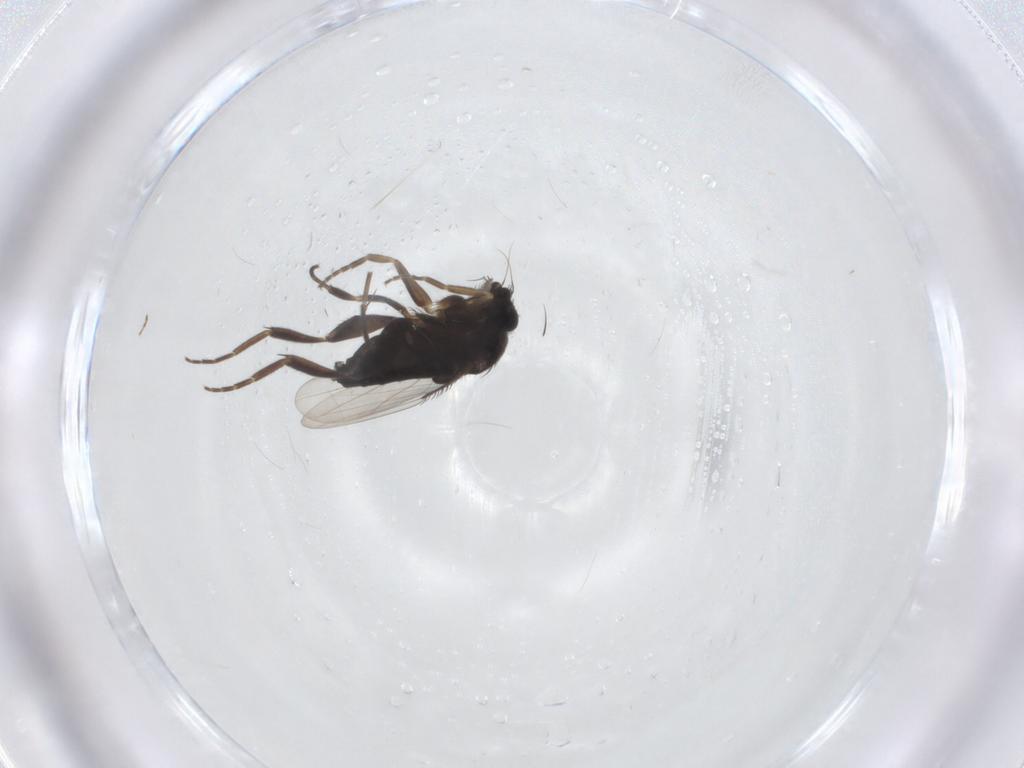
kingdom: Animalia
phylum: Arthropoda
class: Insecta
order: Diptera
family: Phoridae
